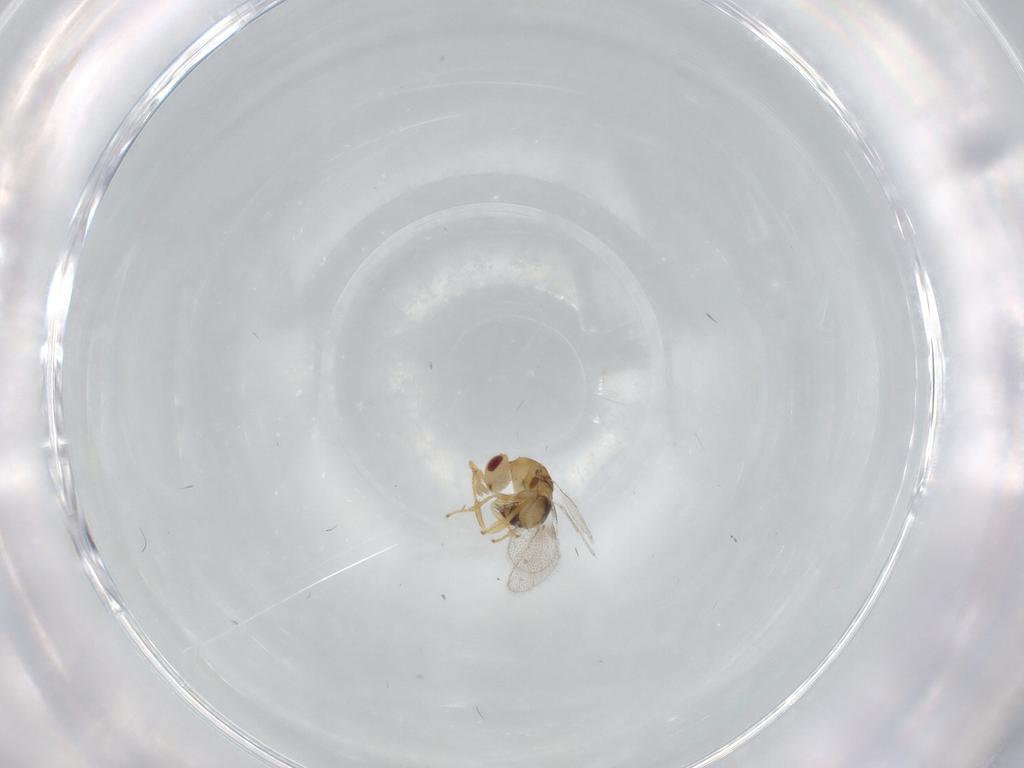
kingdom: Animalia
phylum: Arthropoda
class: Insecta
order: Hymenoptera
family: Torymidae
